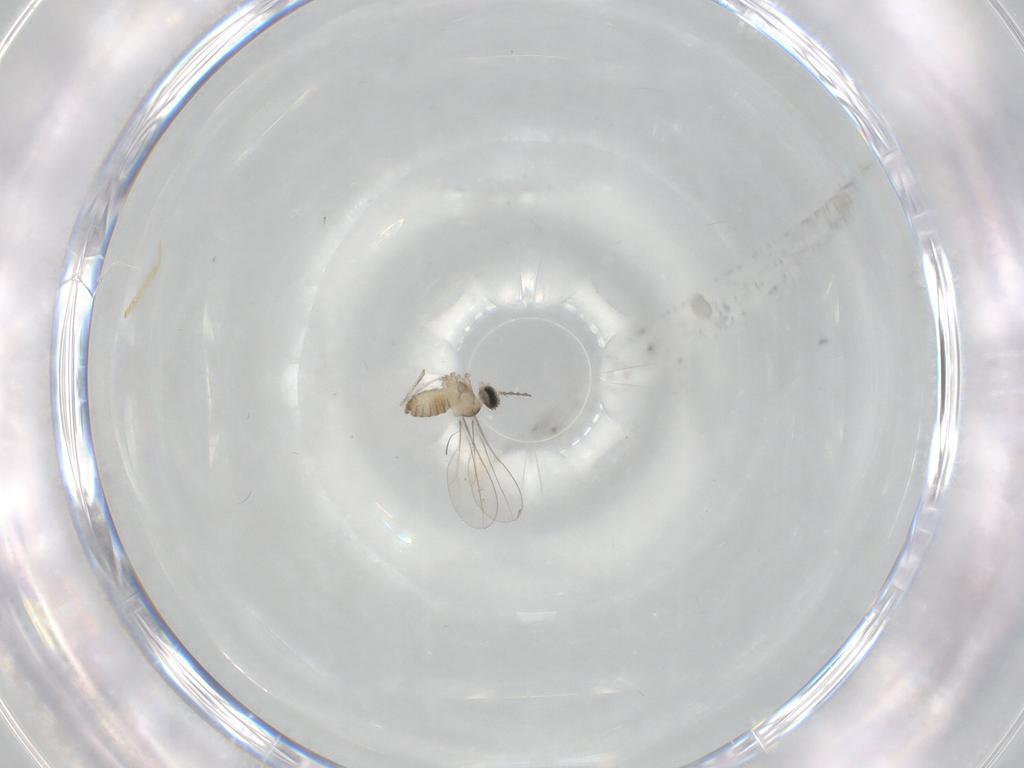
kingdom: Animalia
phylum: Arthropoda
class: Insecta
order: Diptera
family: Cecidomyiidae
